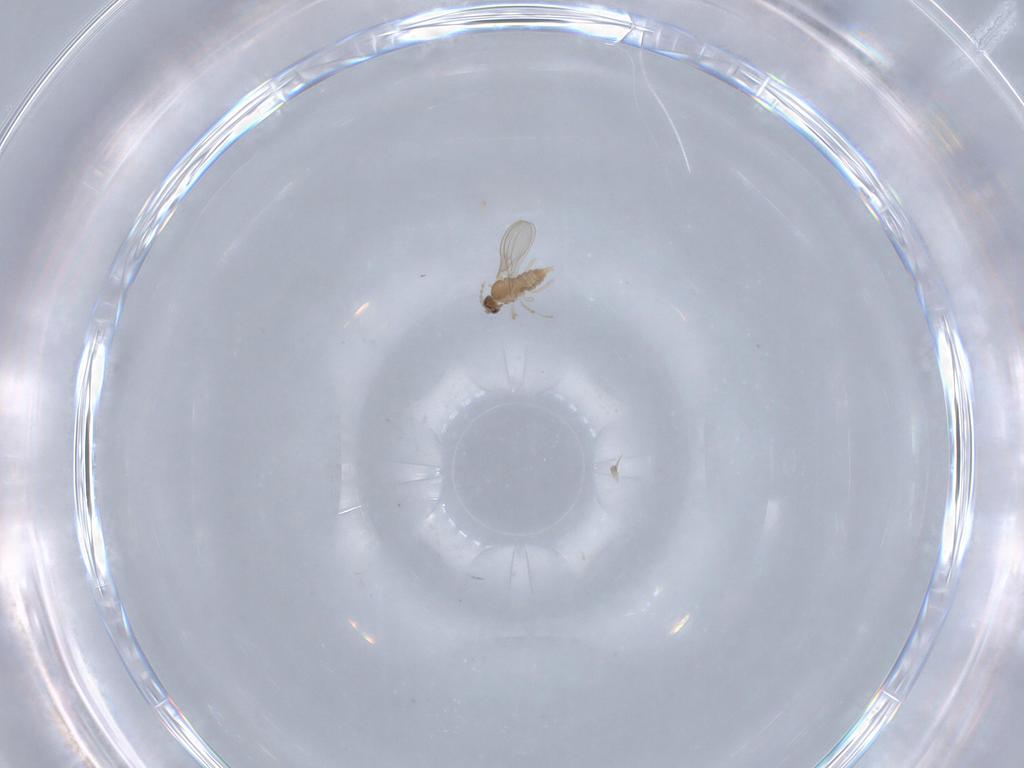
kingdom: Animalia
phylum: Arthropoda
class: Insecta
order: Diptera
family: Cecidomyiidae
